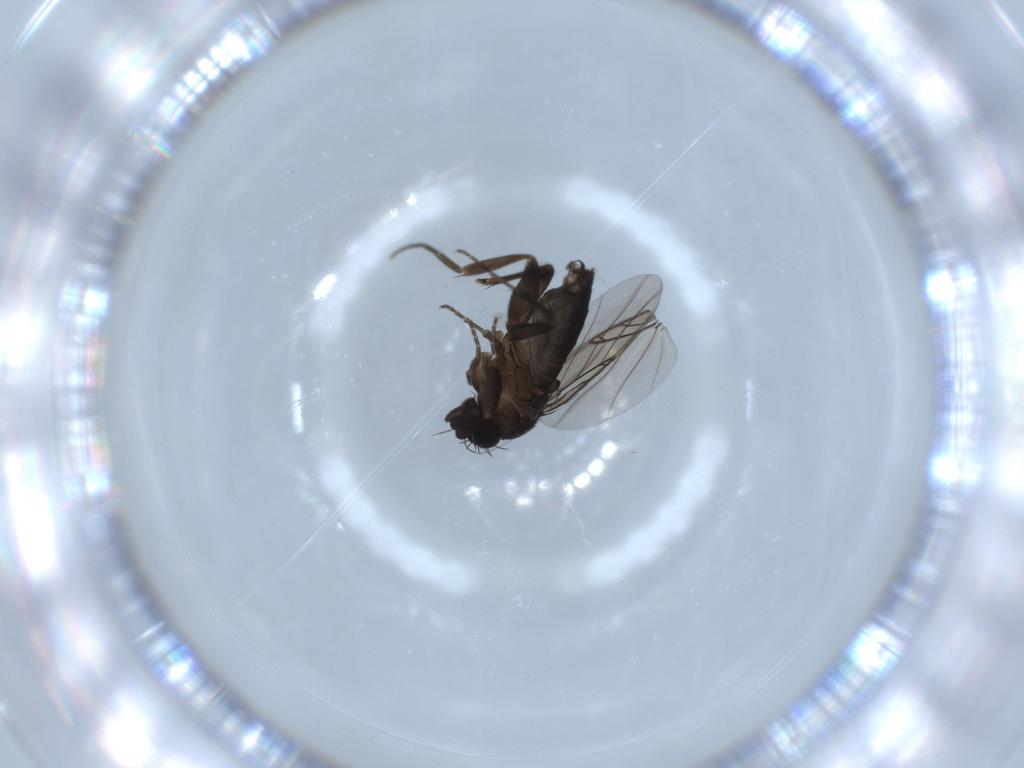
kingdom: Animalia
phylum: Arthropoda
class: Insecta
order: Diptera
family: Phoridae
